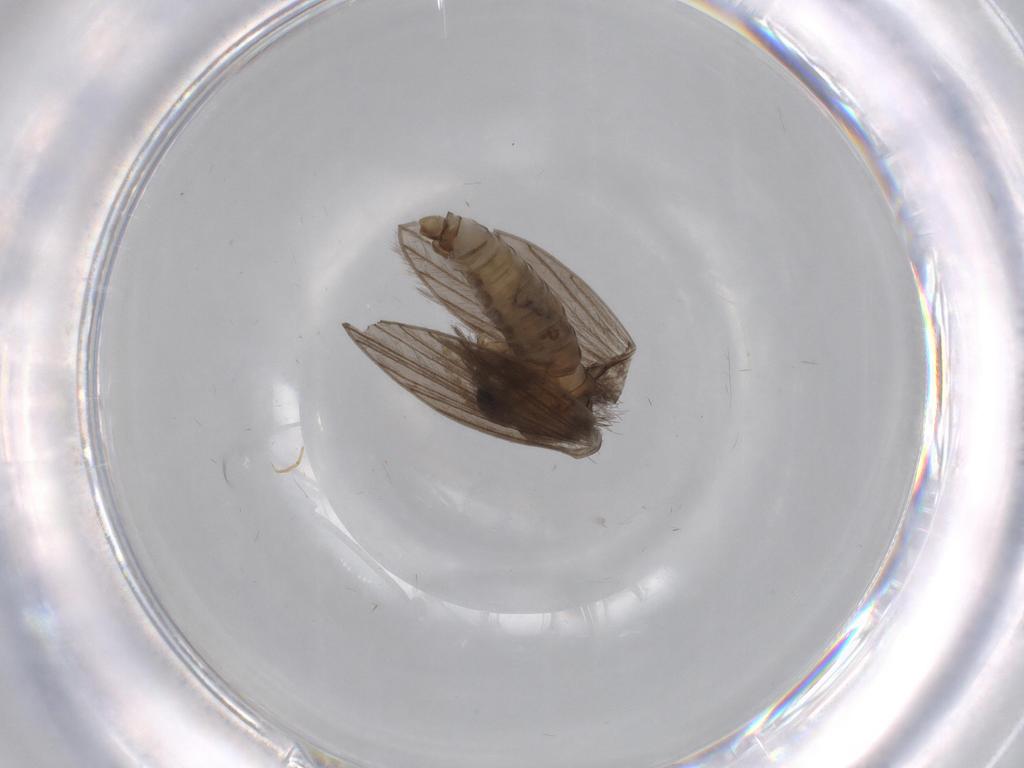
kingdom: Animalia
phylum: Arthropoda
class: Insecta
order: Diptera
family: Psychodidae
